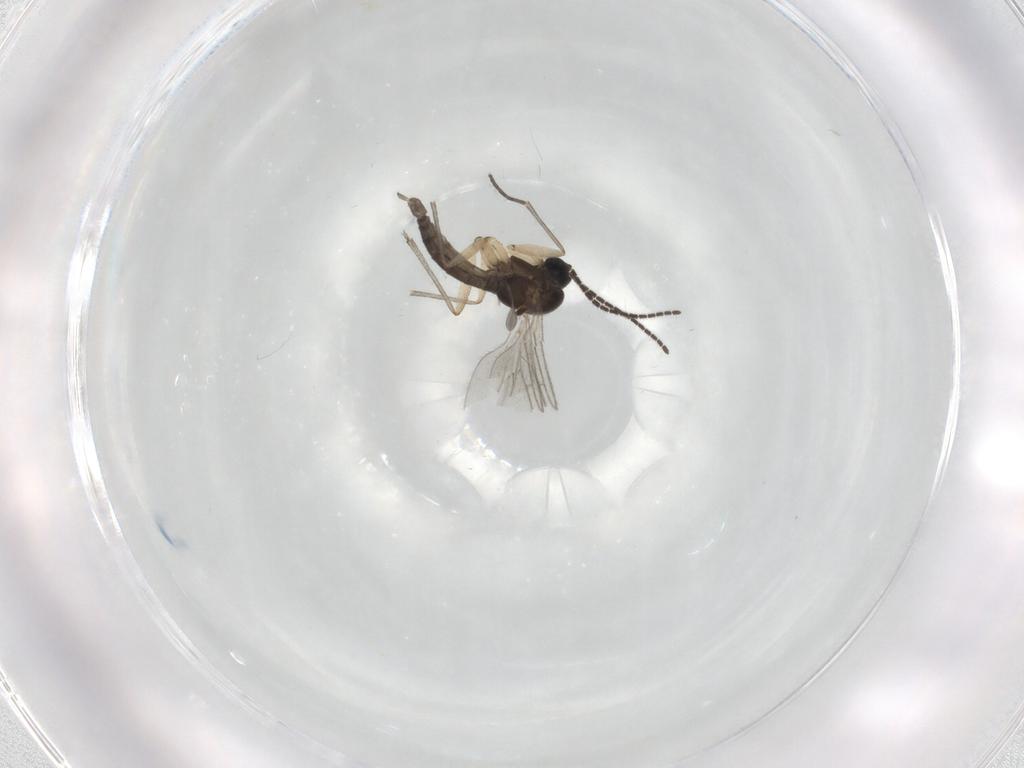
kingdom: Animalia
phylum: Arthropoda
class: Insecta
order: Diptera
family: Sciaridae
